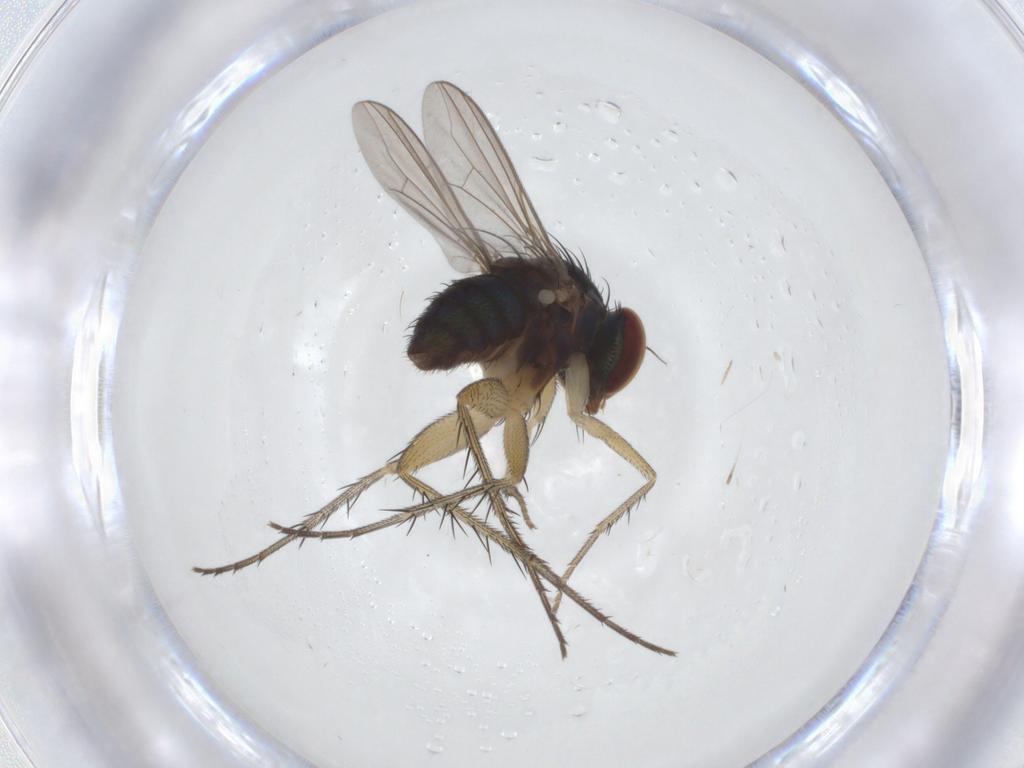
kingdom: Animalia
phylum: Arthropoda
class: Insecta
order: Diptera
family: Dolichopodidae
